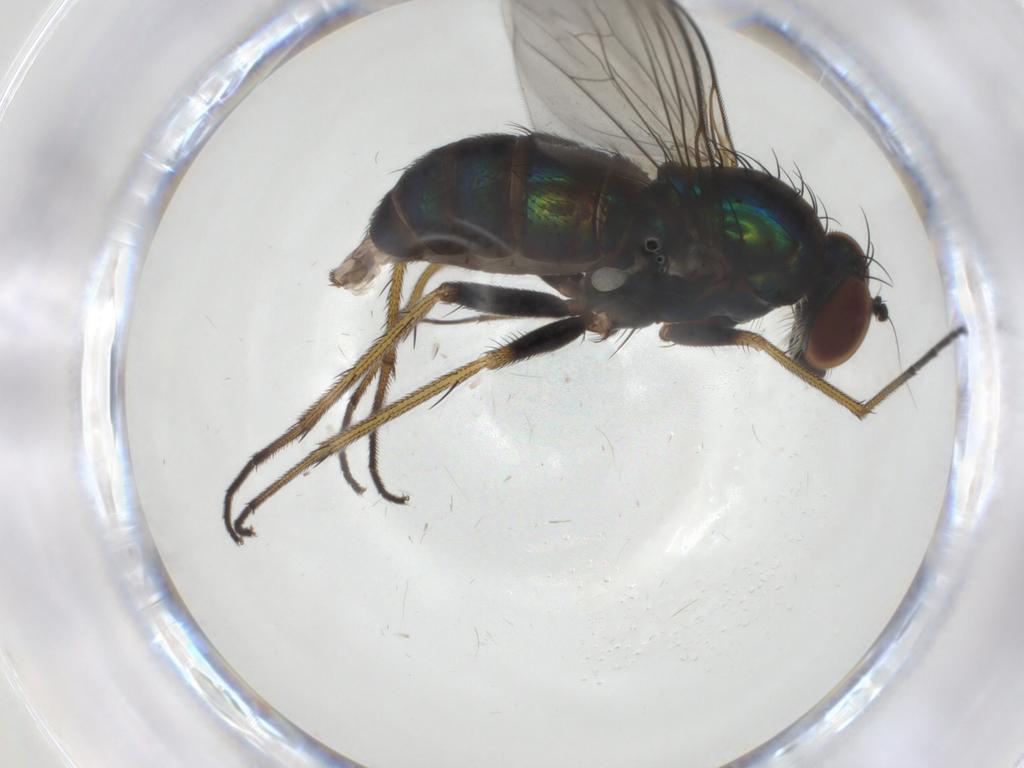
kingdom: Animalia
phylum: Arthropoda
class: Insecta
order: Diptera
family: Dolichopodidae
